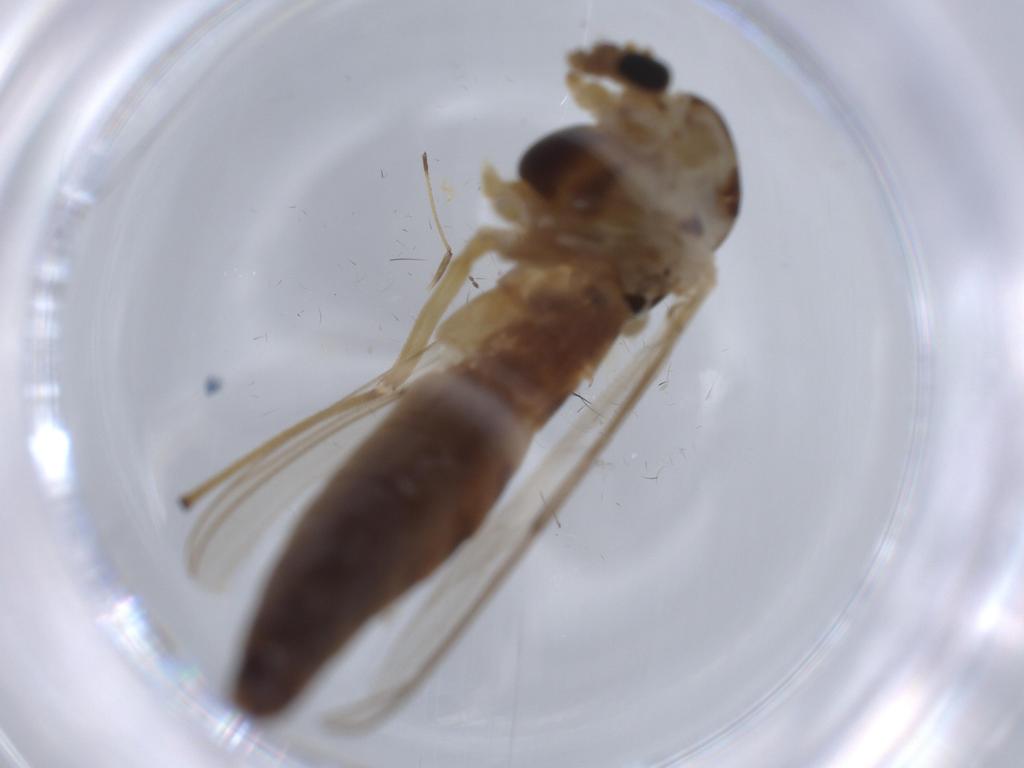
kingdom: Animalia
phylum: Arthropoda
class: Insecta
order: Diptera
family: Chironomidae
